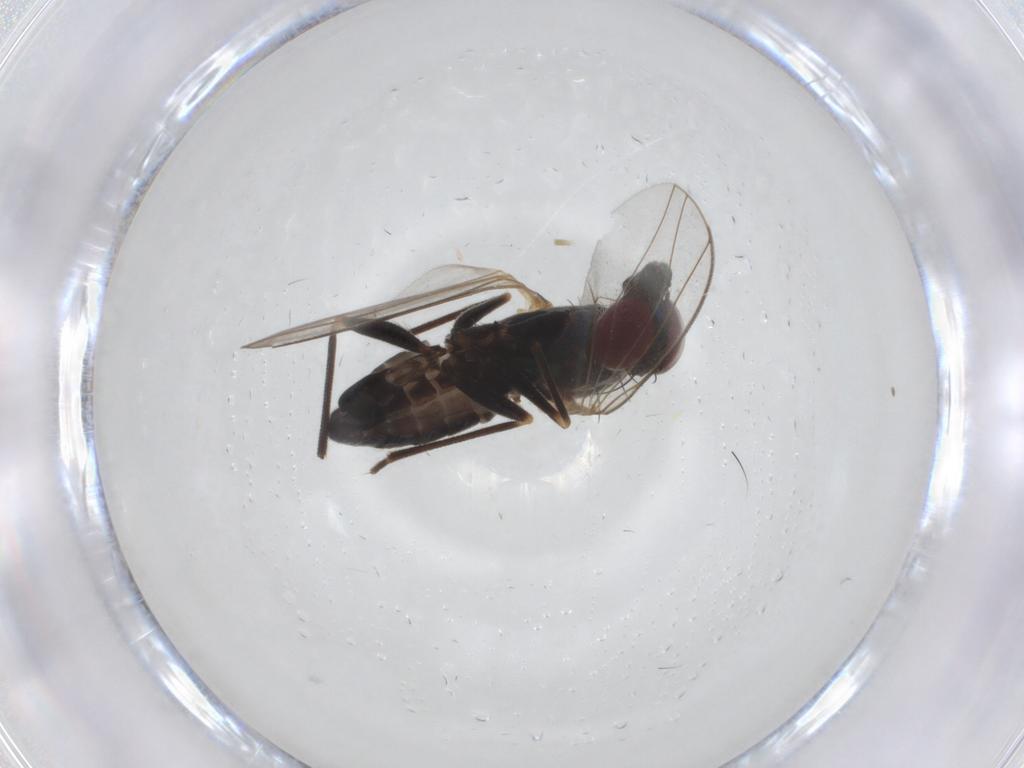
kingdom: Animalia
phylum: Arthropoda
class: Insecta
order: Diptera
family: Dolichopodidae
